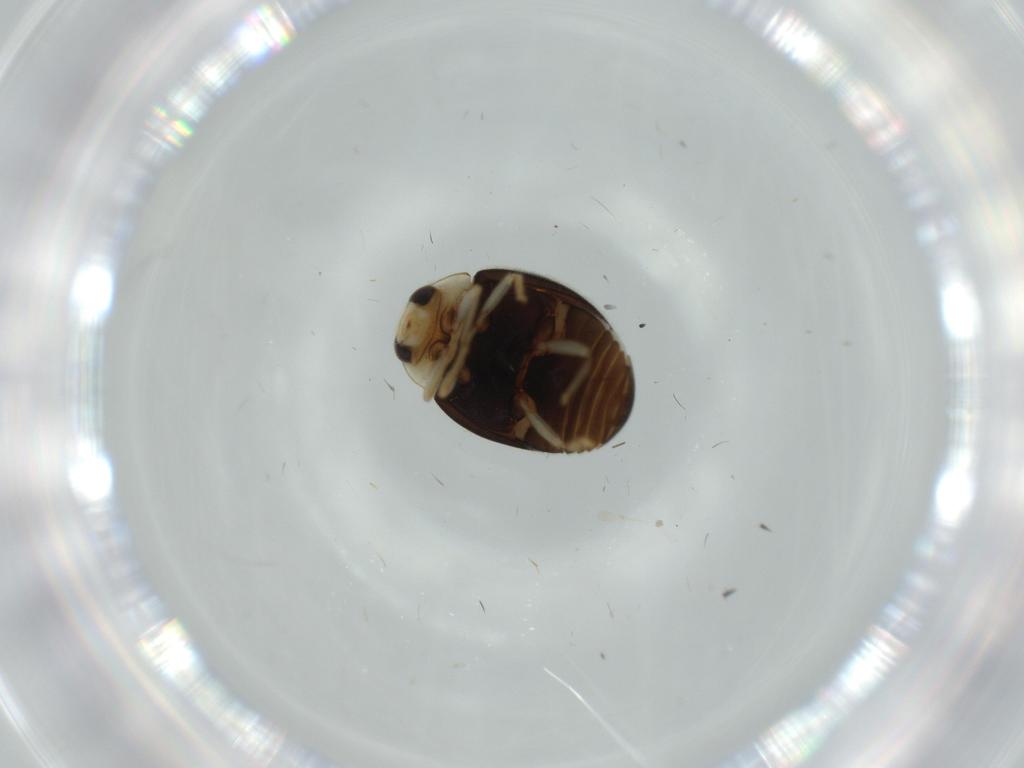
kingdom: Animalia
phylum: Arthropoda
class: Insecta
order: Coleoptera
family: Coccinellidae
